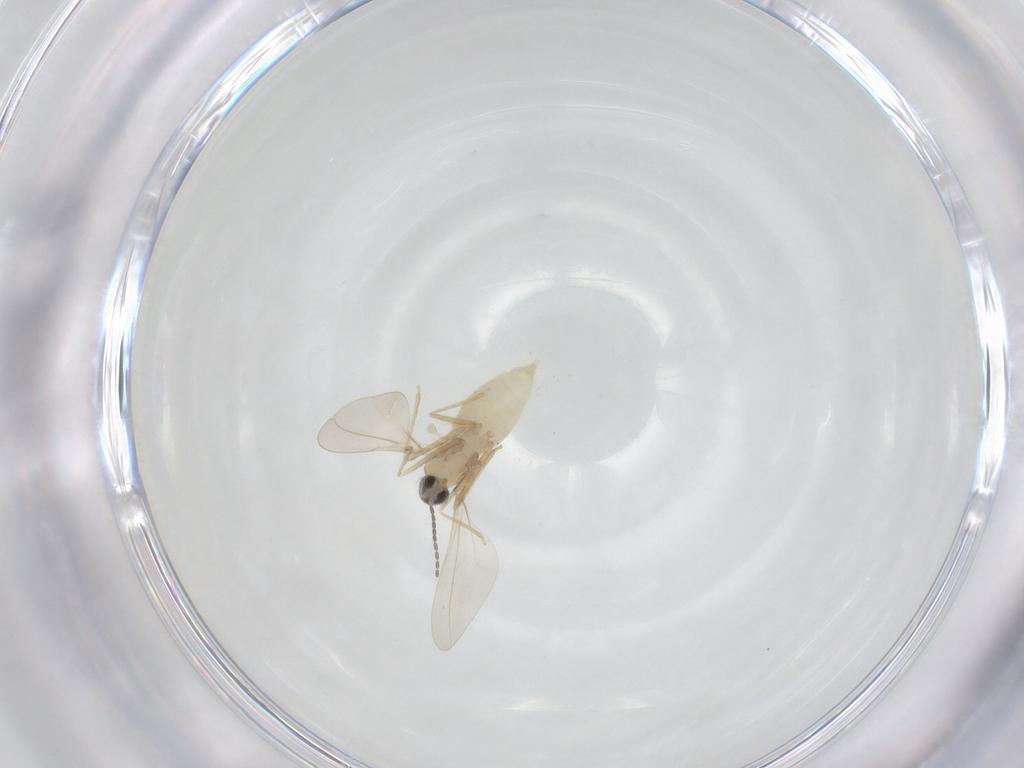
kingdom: Animalia
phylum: Arthropoda
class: Insecta
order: Diptera
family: Cecidomyiidae
